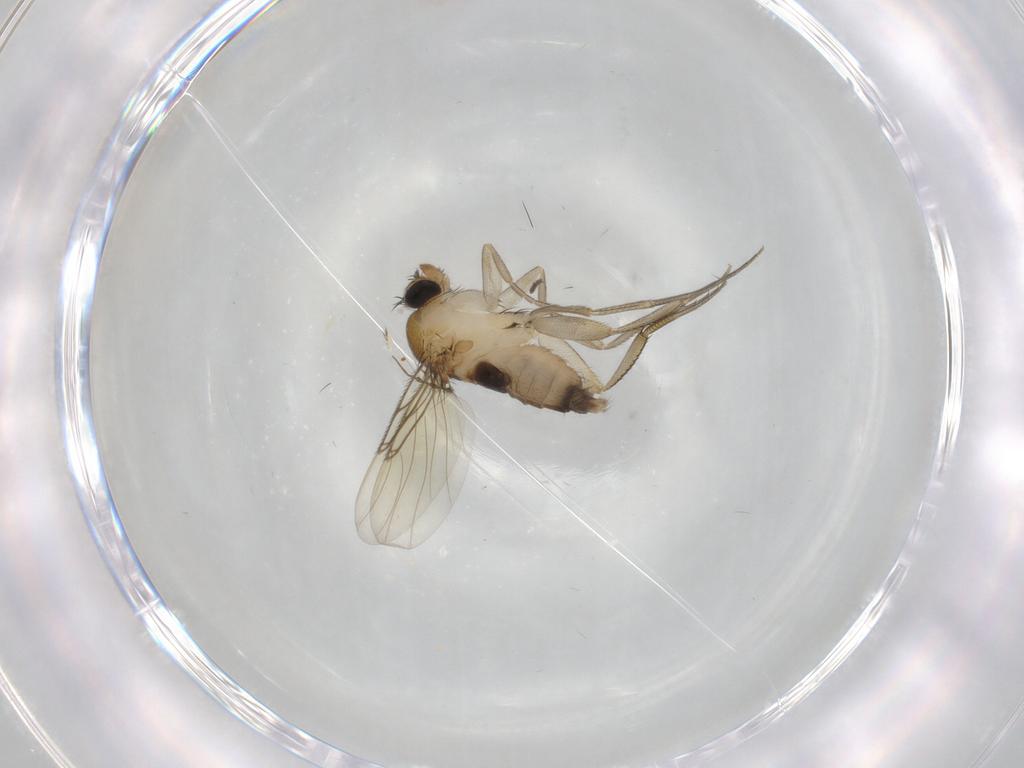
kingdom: Animalia
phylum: Arthropoda
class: Insecta
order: Diptera
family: Phoridae
